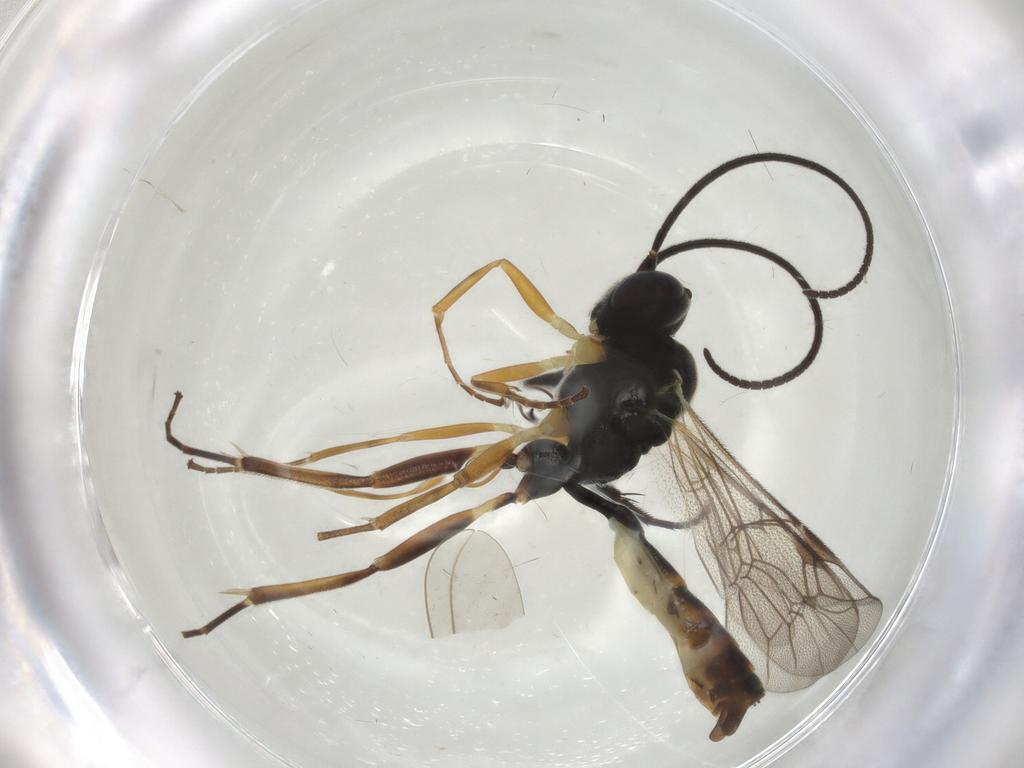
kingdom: Animalia
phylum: Arthropoda
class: Insecta
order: Hymenoptera
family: Ichneumonidae
